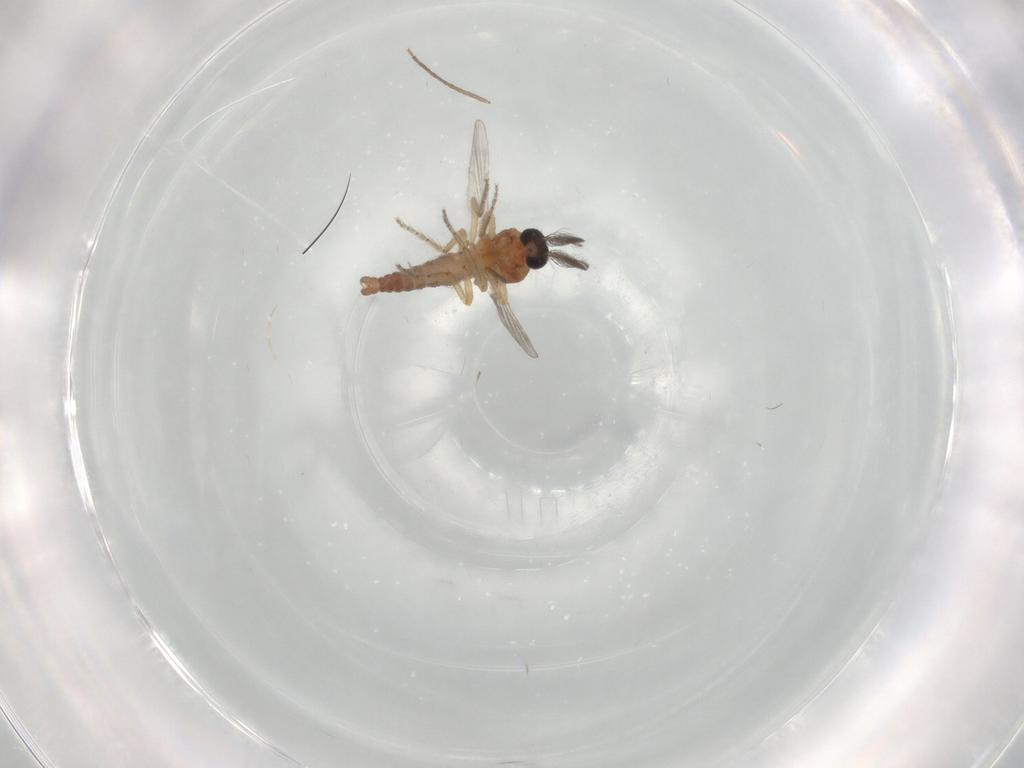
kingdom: Animalia
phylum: Arthropoda
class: Insecta
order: Diptera
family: Ceratopogonidae
